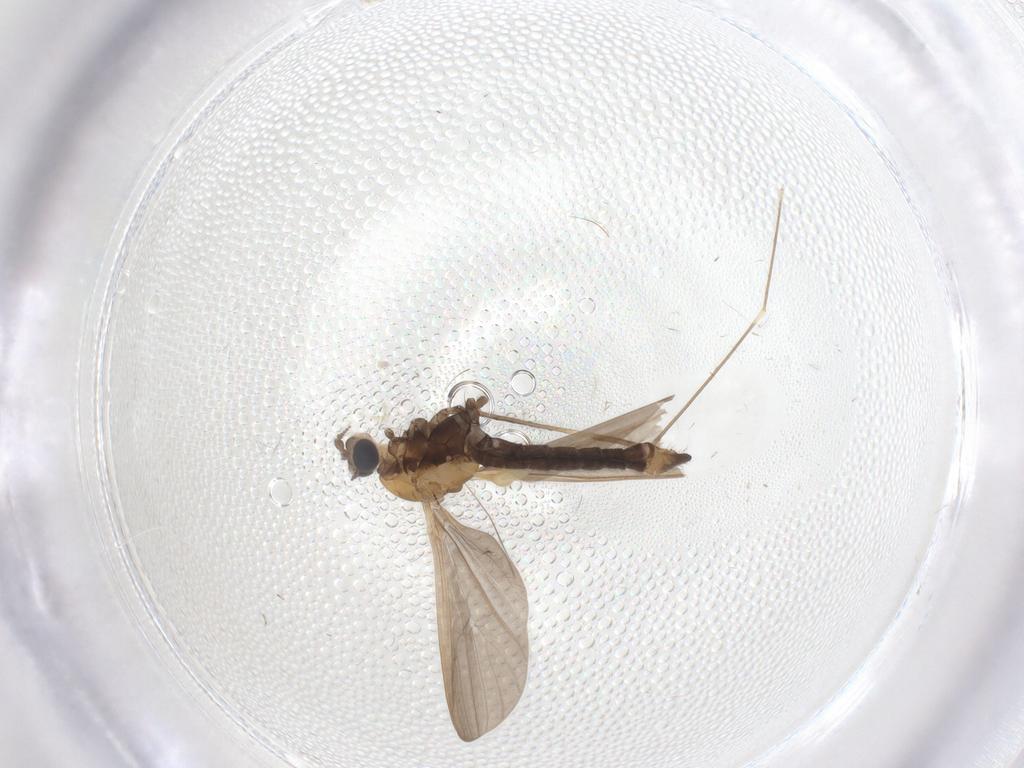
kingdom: Animalia
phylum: Arthropoda
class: Insecta
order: Diptera
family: Limoniidae
